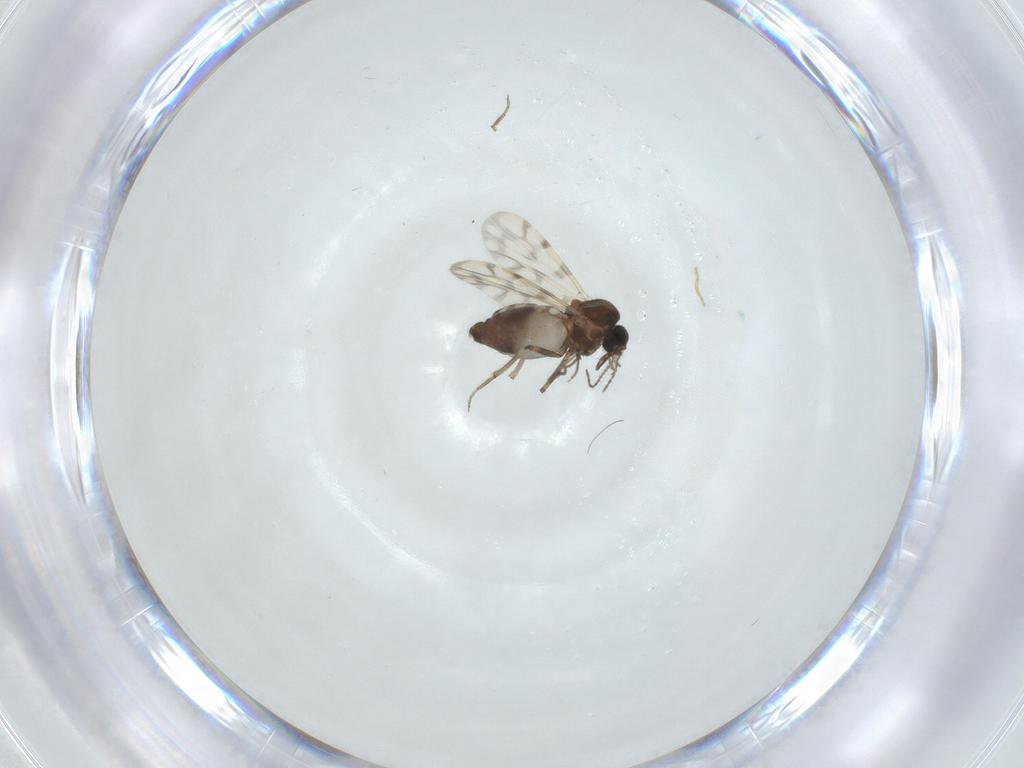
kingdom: Animalia
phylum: Arthropoda
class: Insecta
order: Diptera
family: Ceratopogonidae
